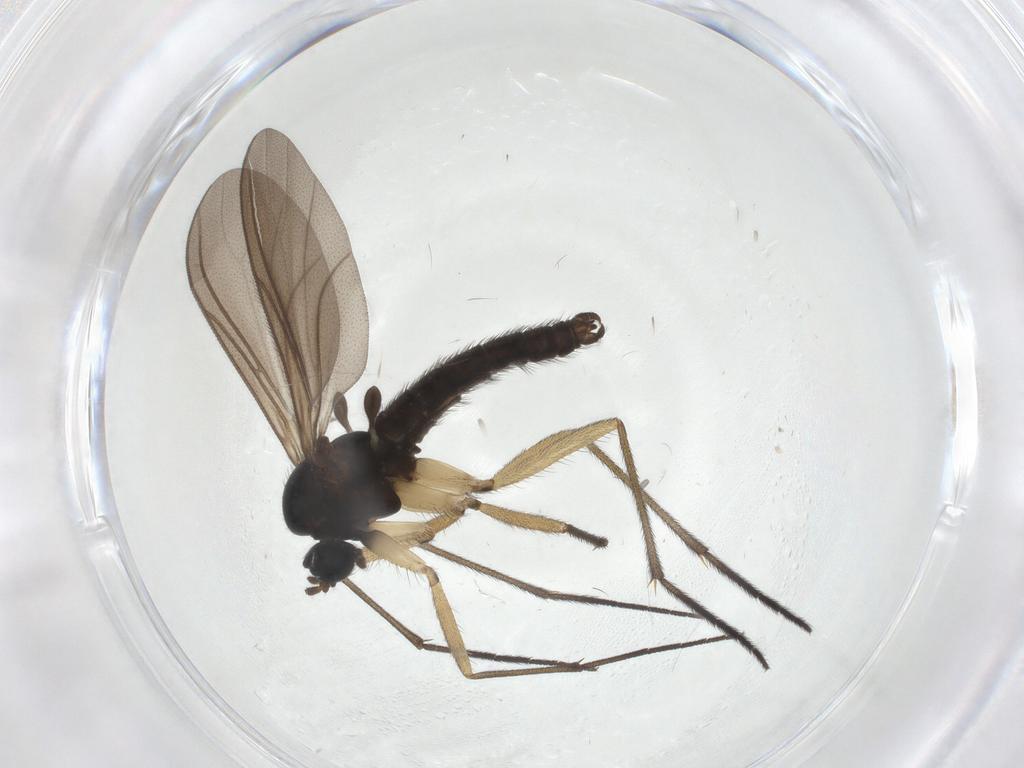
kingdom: Animalia
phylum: Arthropoda
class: Insecta
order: Diptera
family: Sciaridae
